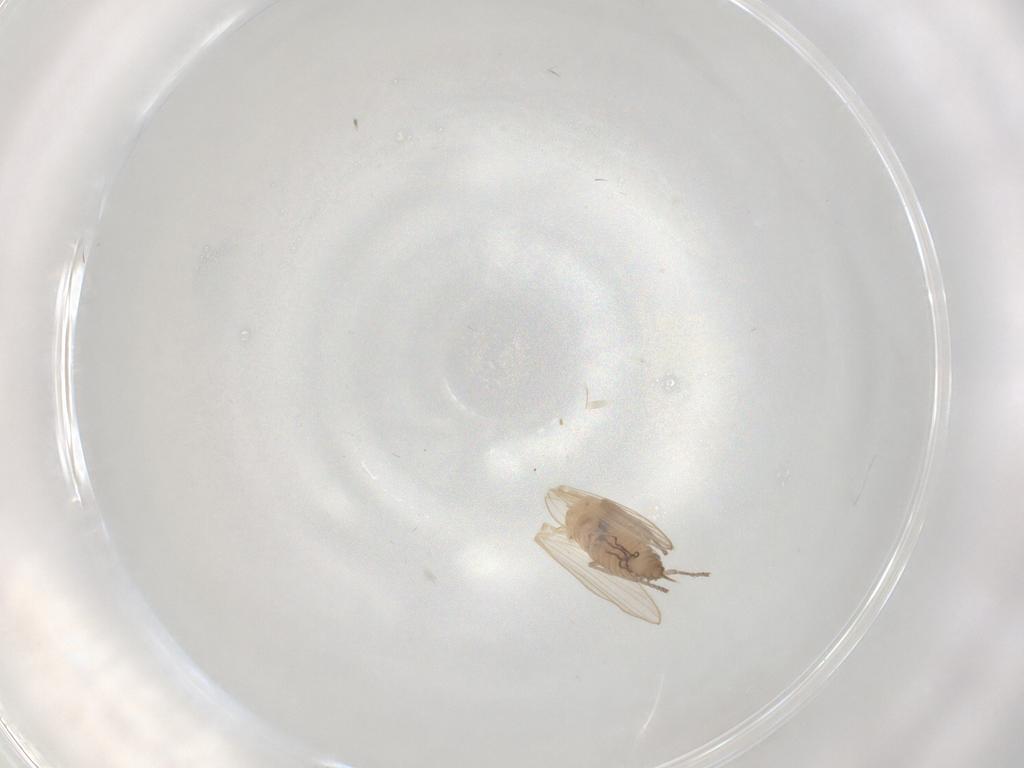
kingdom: Animalia
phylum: Arthropoda
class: Insecta
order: Diptera
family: Psychodidae
